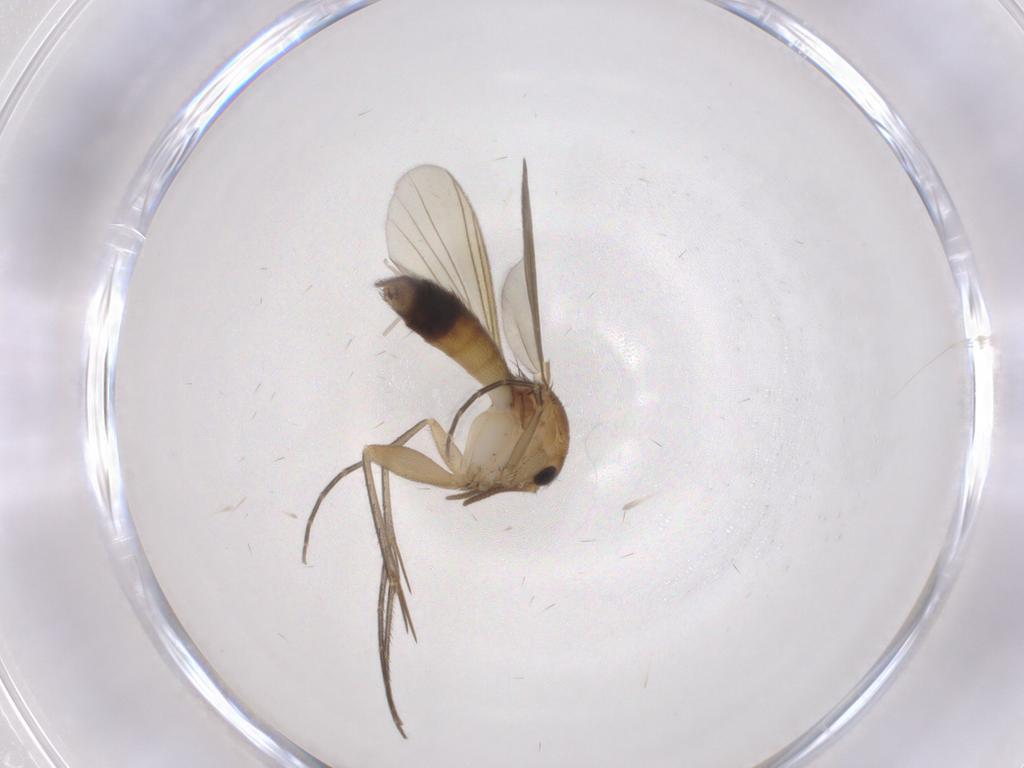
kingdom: Animalia
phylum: Arthropoda
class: Insecta
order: Diptera
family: Mycetophilidae
